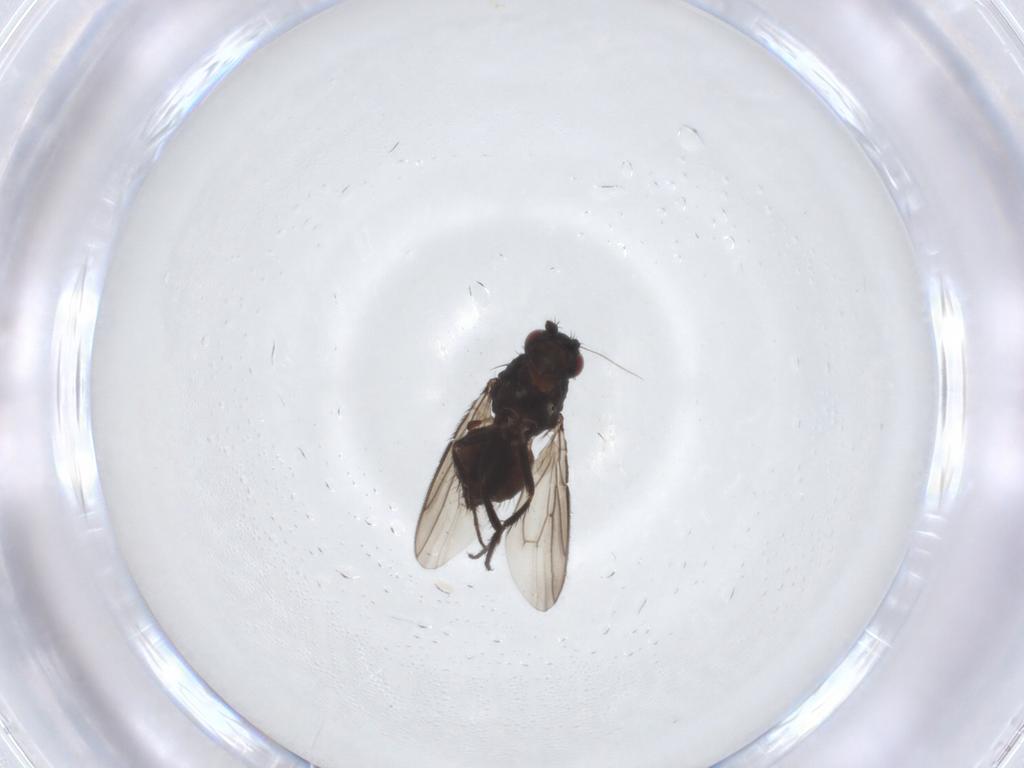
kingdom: Animalia
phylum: Arthropoda
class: Insecta
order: Diptera
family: Sphaeroceridae
